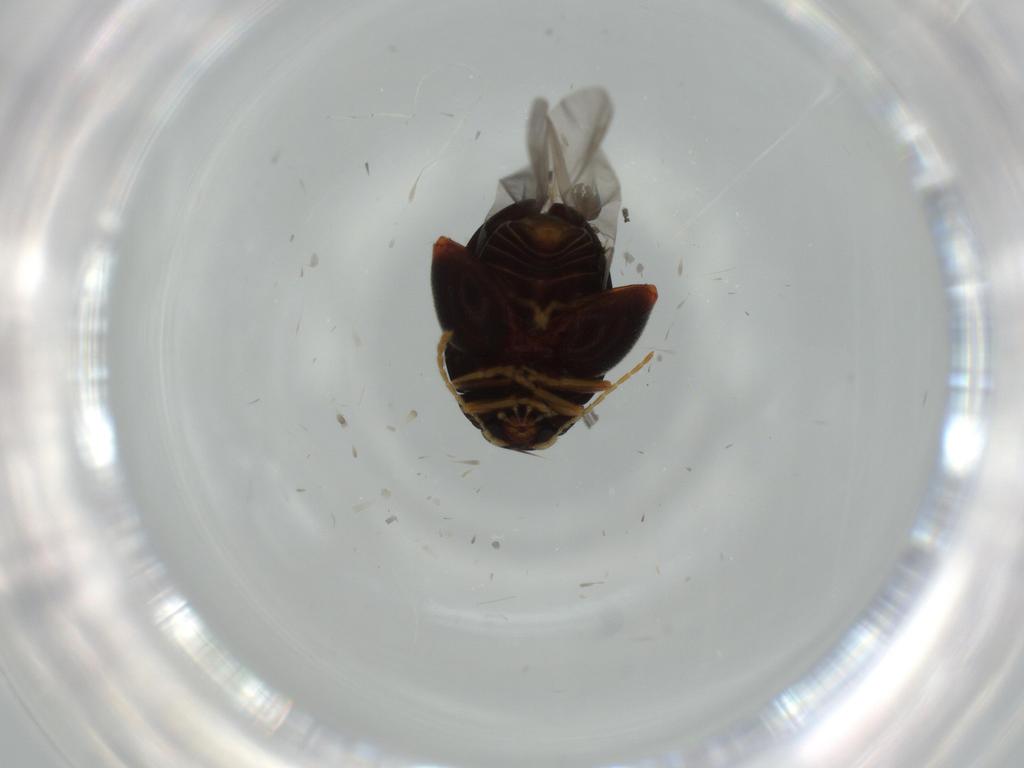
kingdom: Animalia
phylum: Arthropoda
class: Insecta
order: Coleoptera
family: Chrysomelidae
